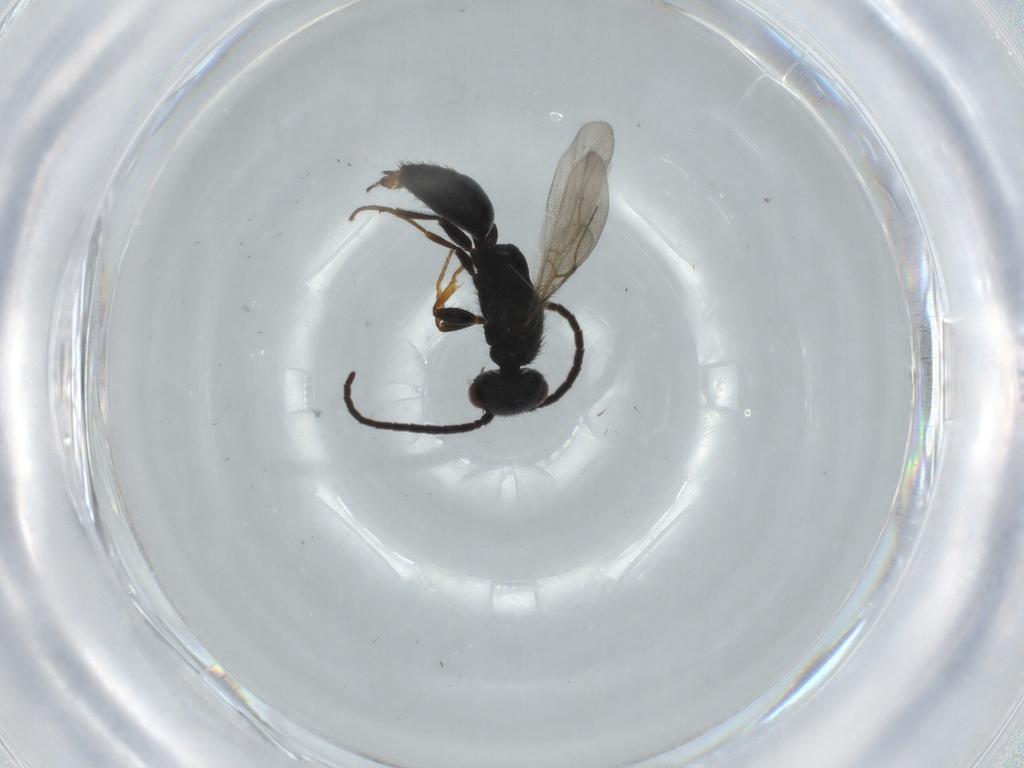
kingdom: Animalia
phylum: Arthropoda
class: Insecta
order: Hymenoptera
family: Bethylidae
